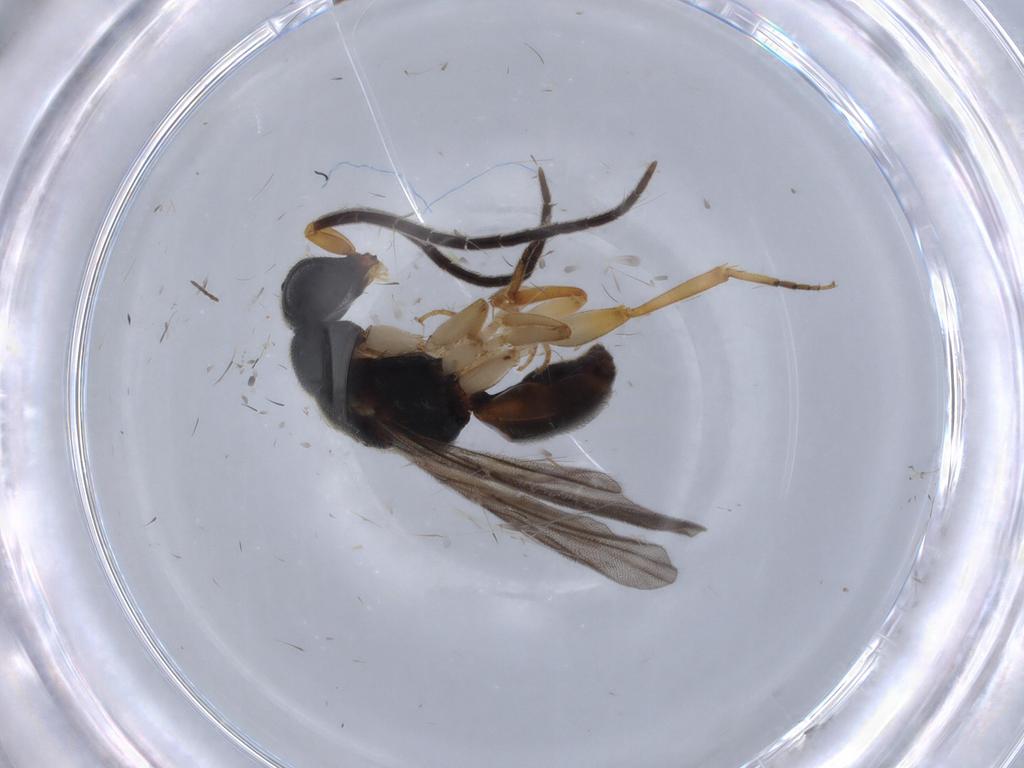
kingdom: Animalia
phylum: Arthropoda
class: Insecta
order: Hymenoptera
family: Chrysididae
